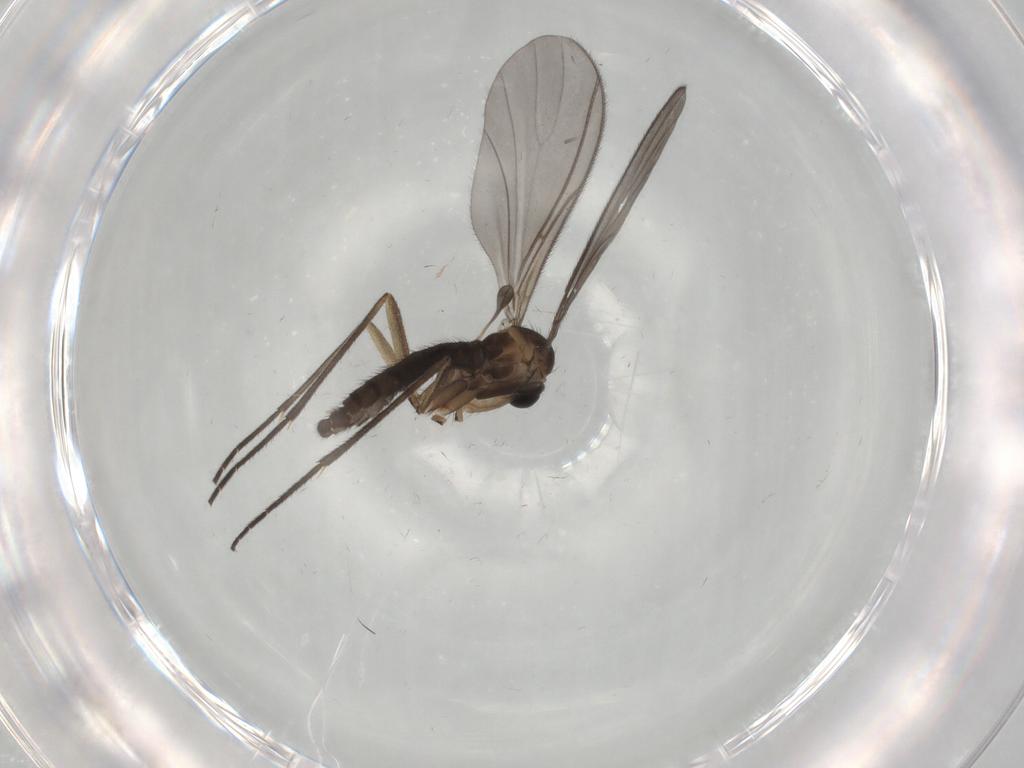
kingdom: Animalia
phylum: Arthropoda
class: Insecta
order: Diptera
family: Sciaridae
